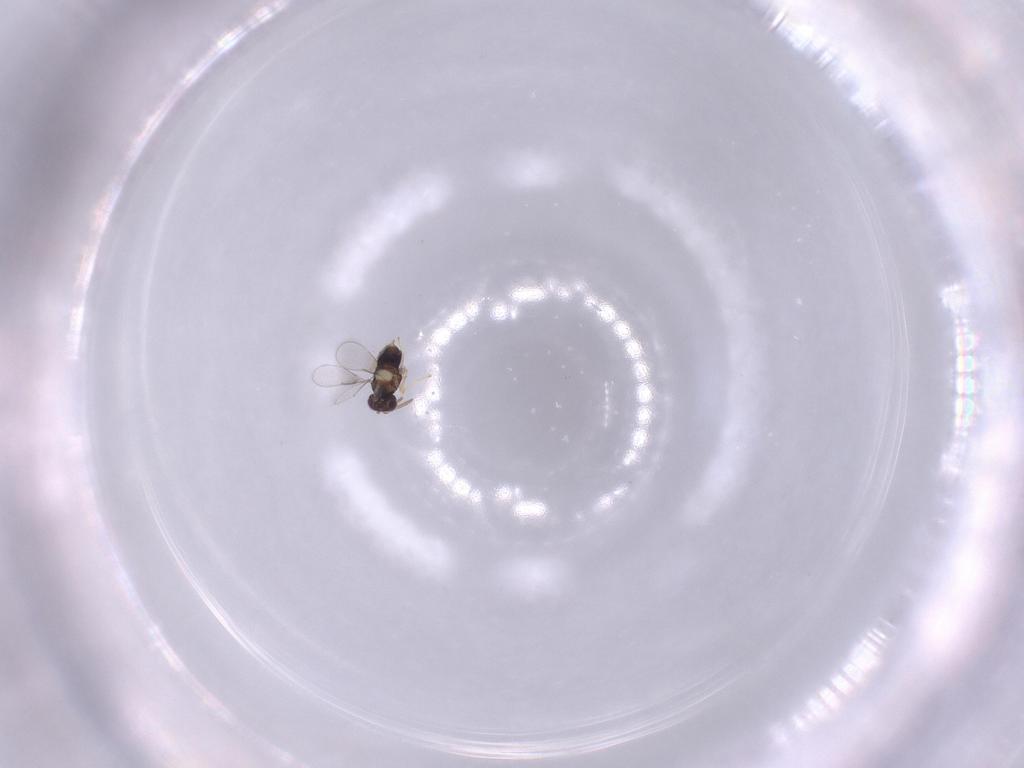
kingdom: Animalia
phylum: Arthropoda
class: Insecta
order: Hymenoptera
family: Aphelinidae
